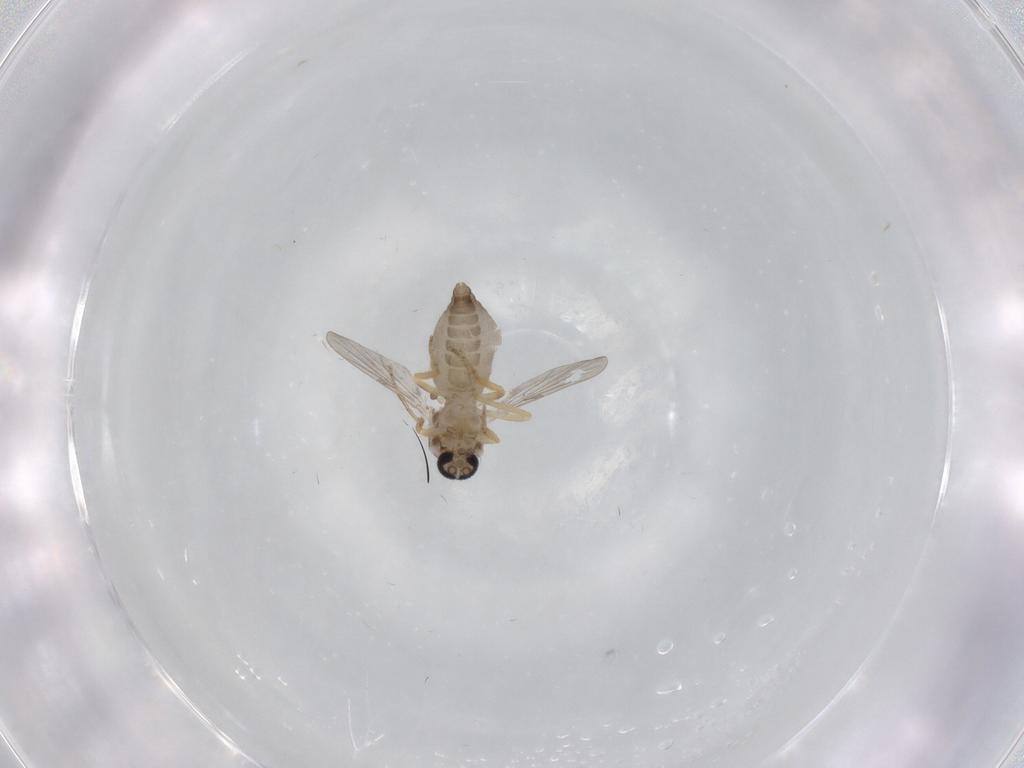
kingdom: Animalia
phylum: Arthropoda
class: Insecta
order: Diptera
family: Ceratopogonidae
